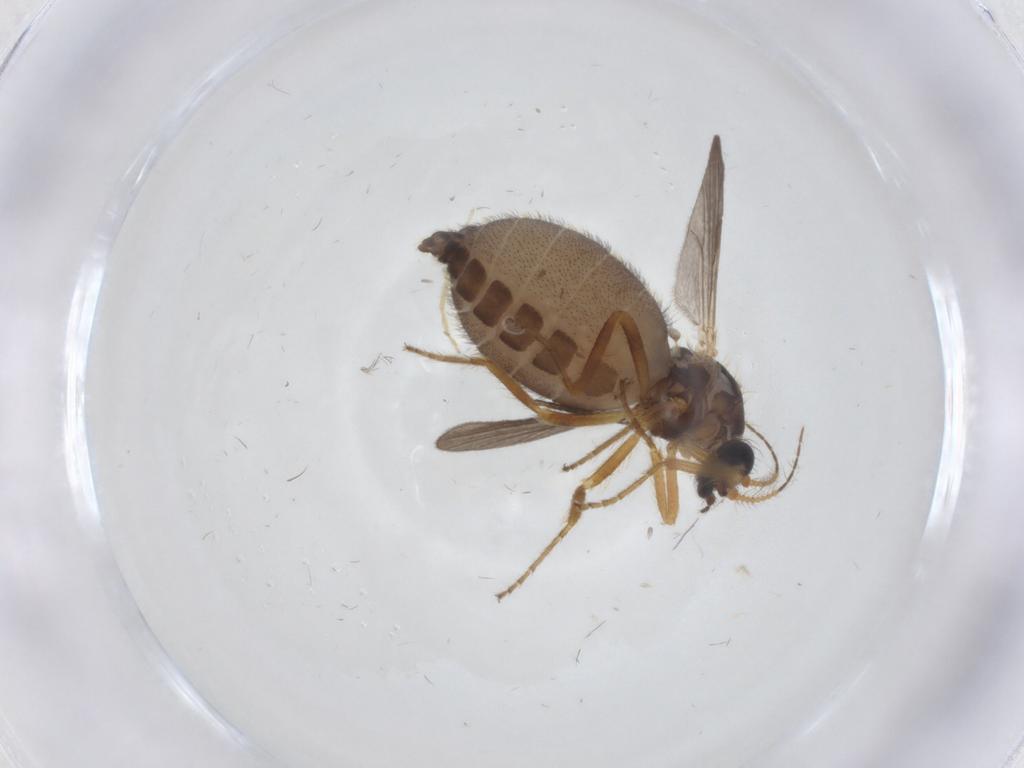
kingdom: Animalia
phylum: Arthropoda
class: Insecta
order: Diptera
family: Ceratopogonidae
